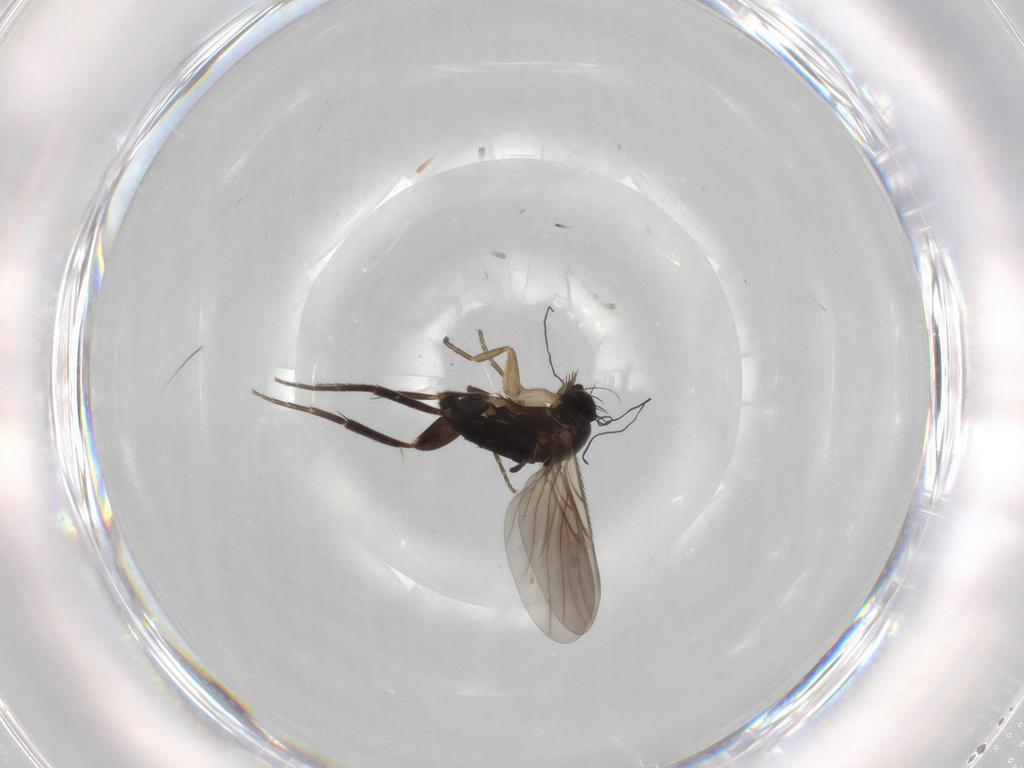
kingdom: Animalia
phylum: Arthropoda
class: Insecta
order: Diptera
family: Phoridae
